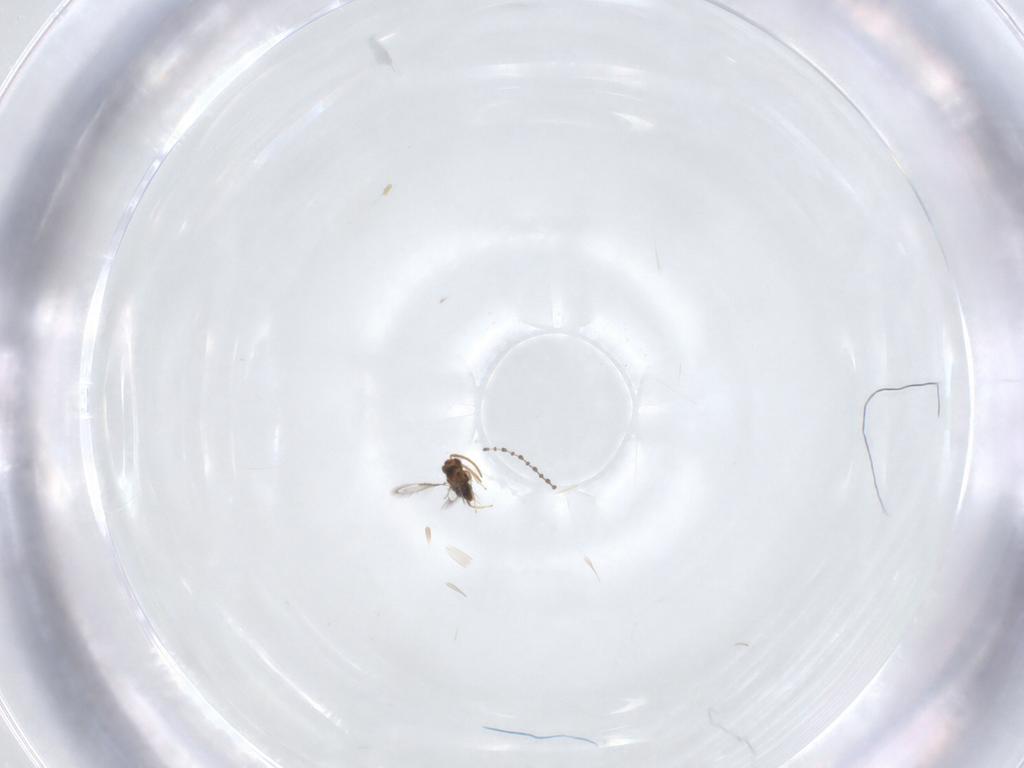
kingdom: Animalia
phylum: Arthropoda
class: Insecta
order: Diptera
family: Cecidomyiidae
